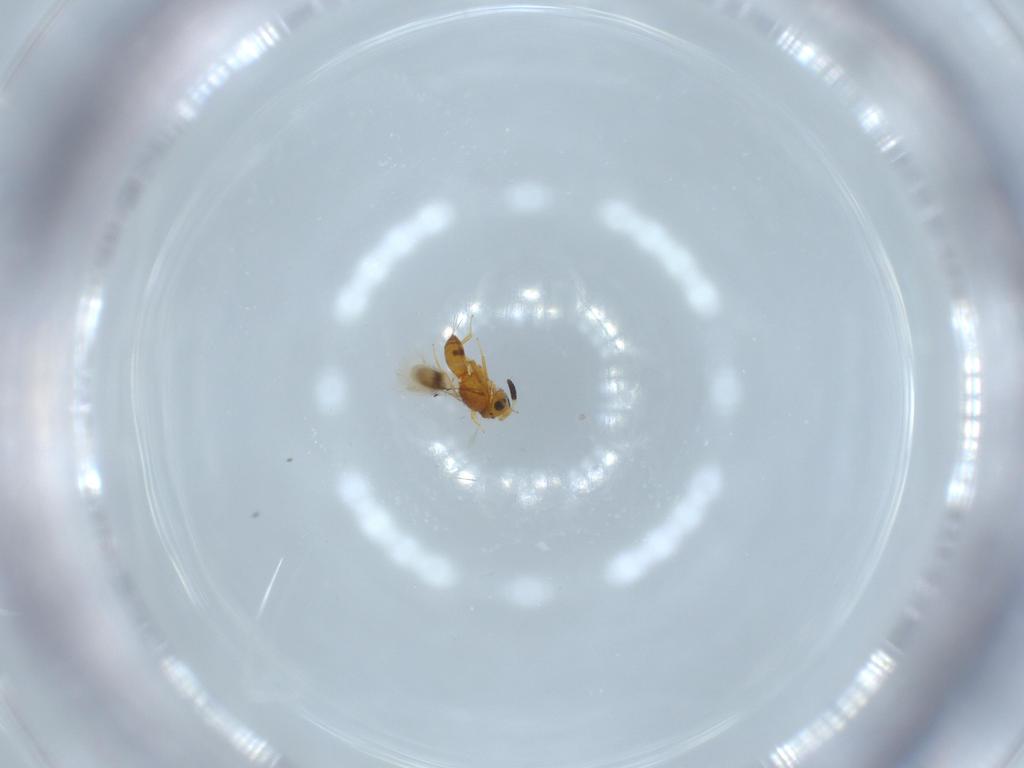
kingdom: Animalia
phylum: Arthropoda
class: Insecta
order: Hymenoptera
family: Scelionidae
